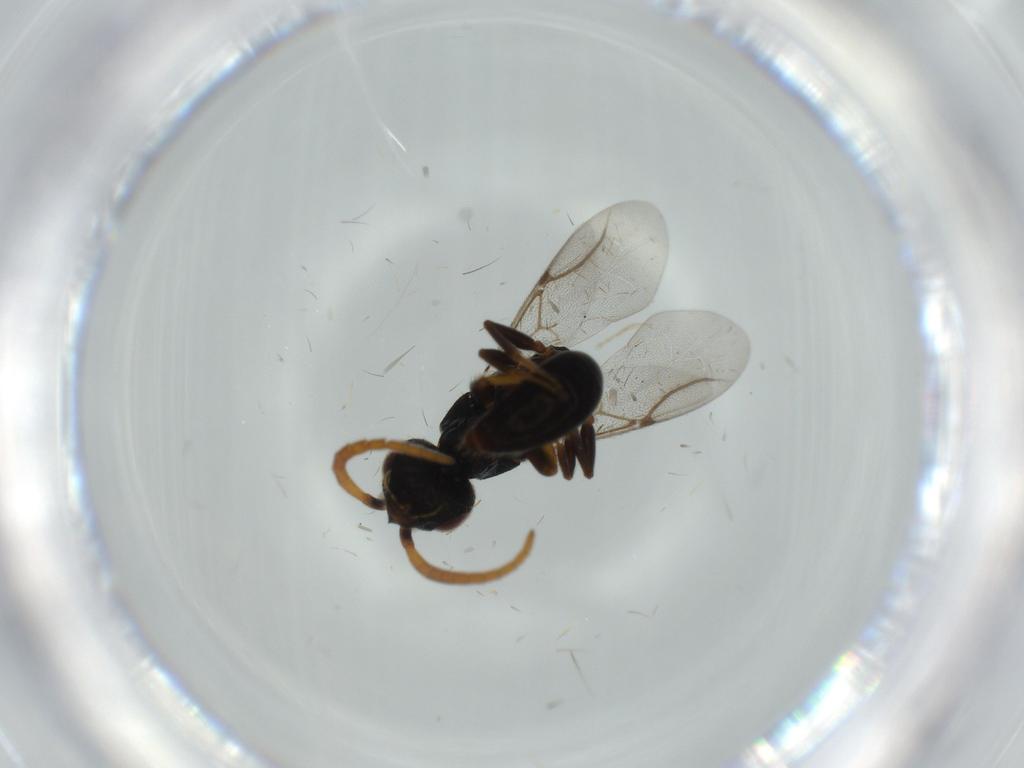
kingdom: Animalia
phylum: Arthropoda
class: Insecta
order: Hymenoptera
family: Bethylidae
